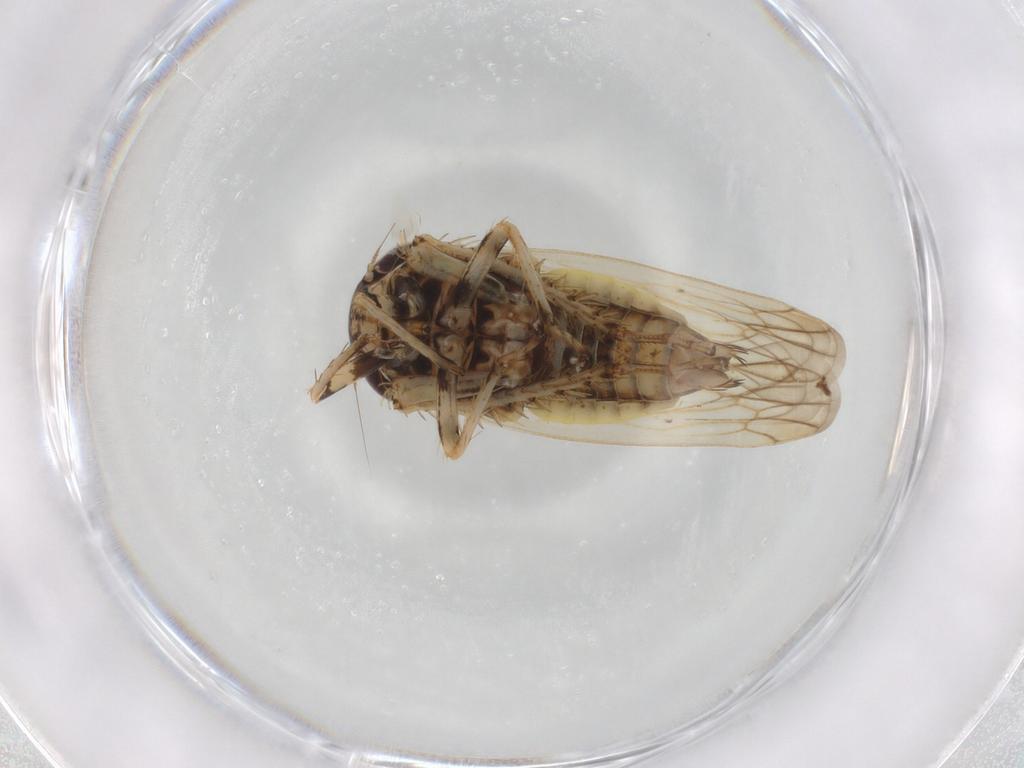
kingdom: Animalia
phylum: Arthropoda
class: Insecta
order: Hemiptera
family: Cicadellidae
